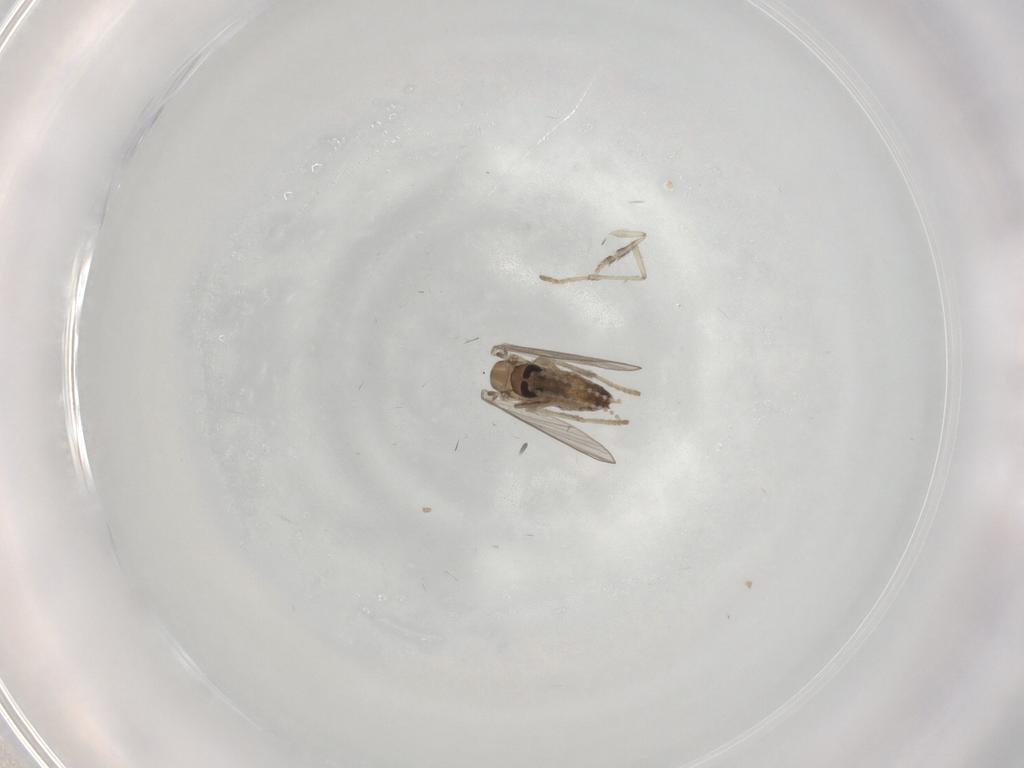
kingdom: Animalia
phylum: Arthropoda
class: Insecta
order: Diptera
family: Psychodidae
